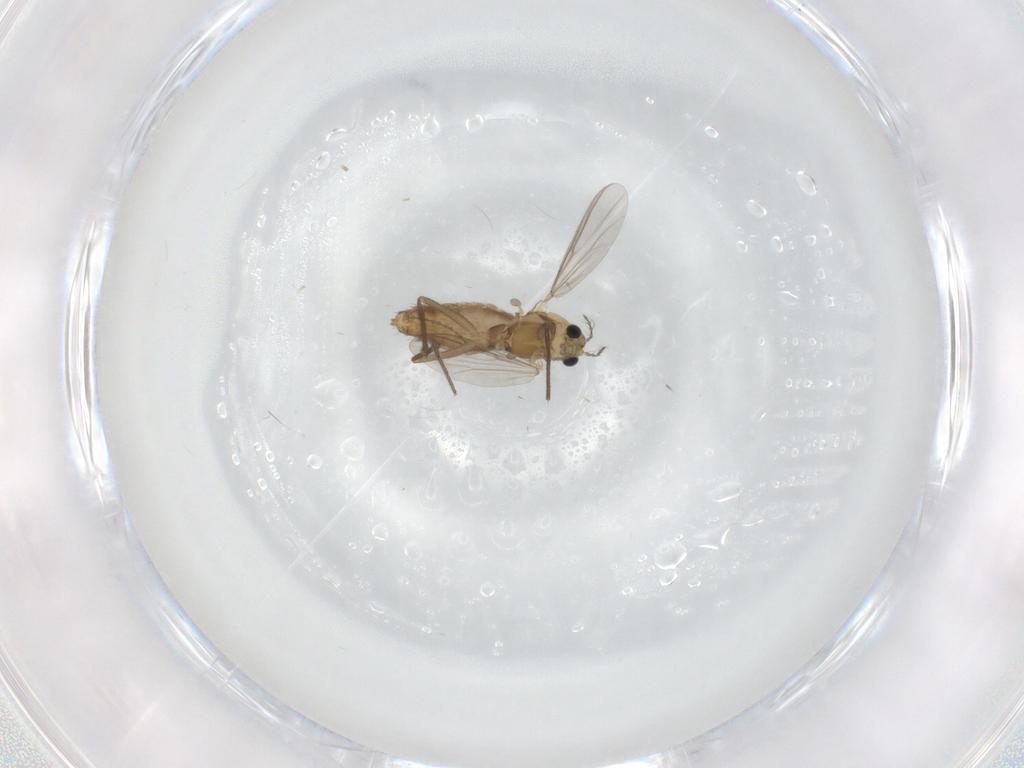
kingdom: Animalia
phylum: Arthropoda
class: Insecta
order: Diptera
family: Chironomidae
